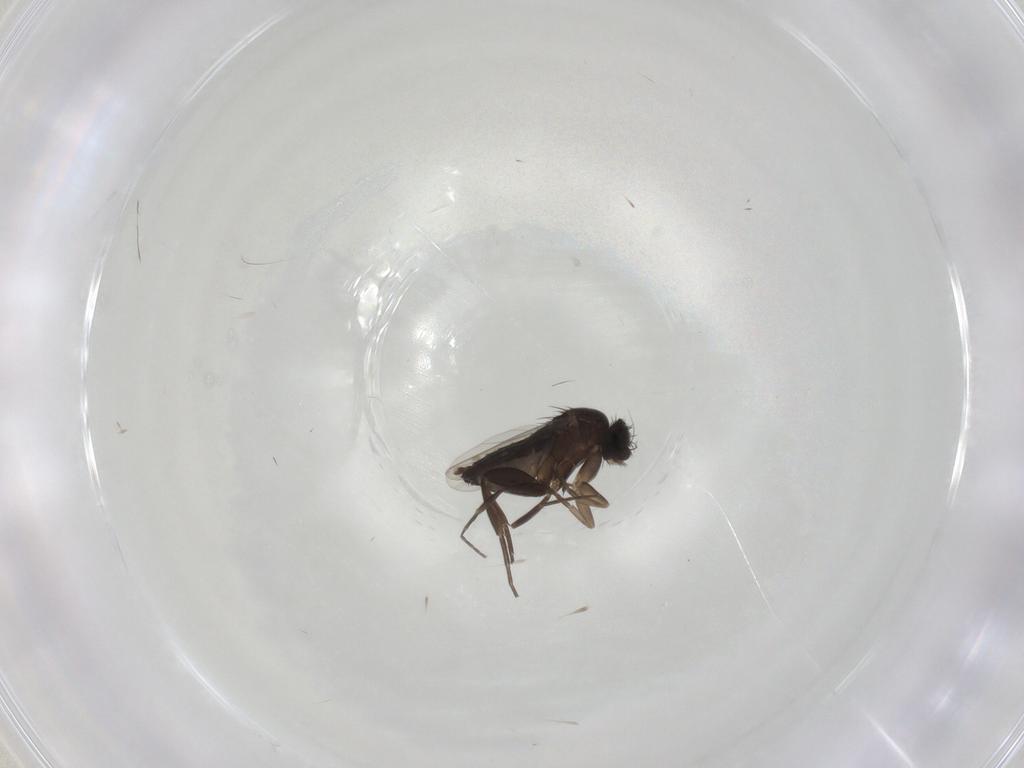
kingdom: Animalia
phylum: Arthropoda
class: Insecta
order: Diptera
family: Phoridae
